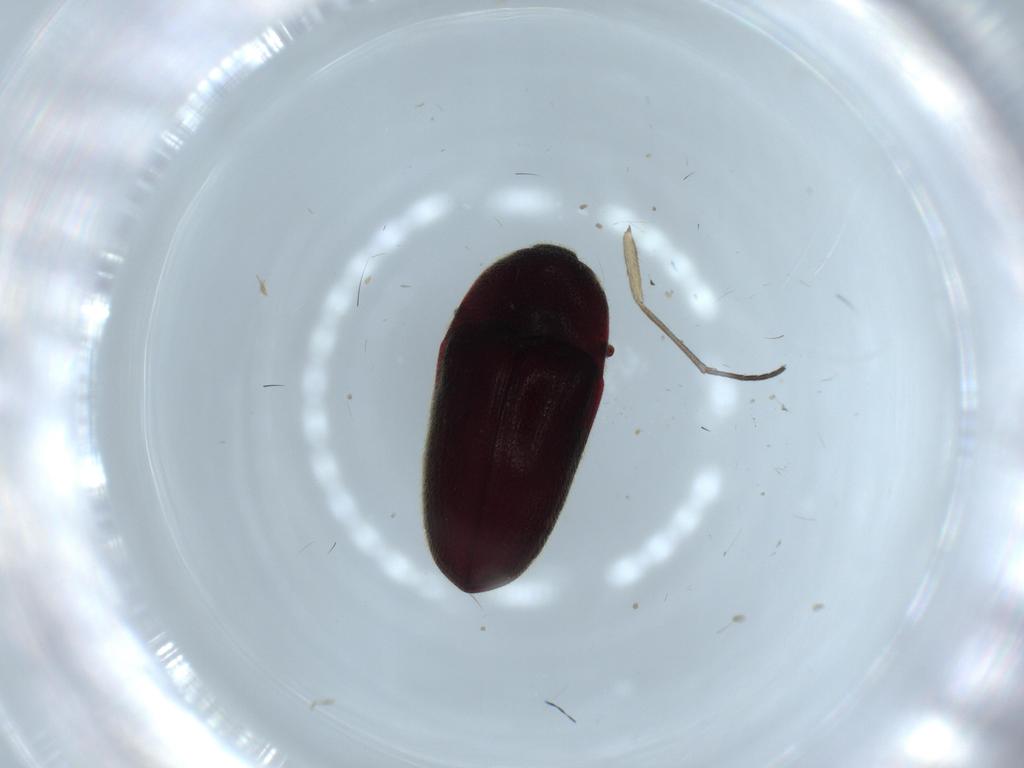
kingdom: Animalia
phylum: Arthropoda
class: Insecta
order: Coleoptera
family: Throscidae
